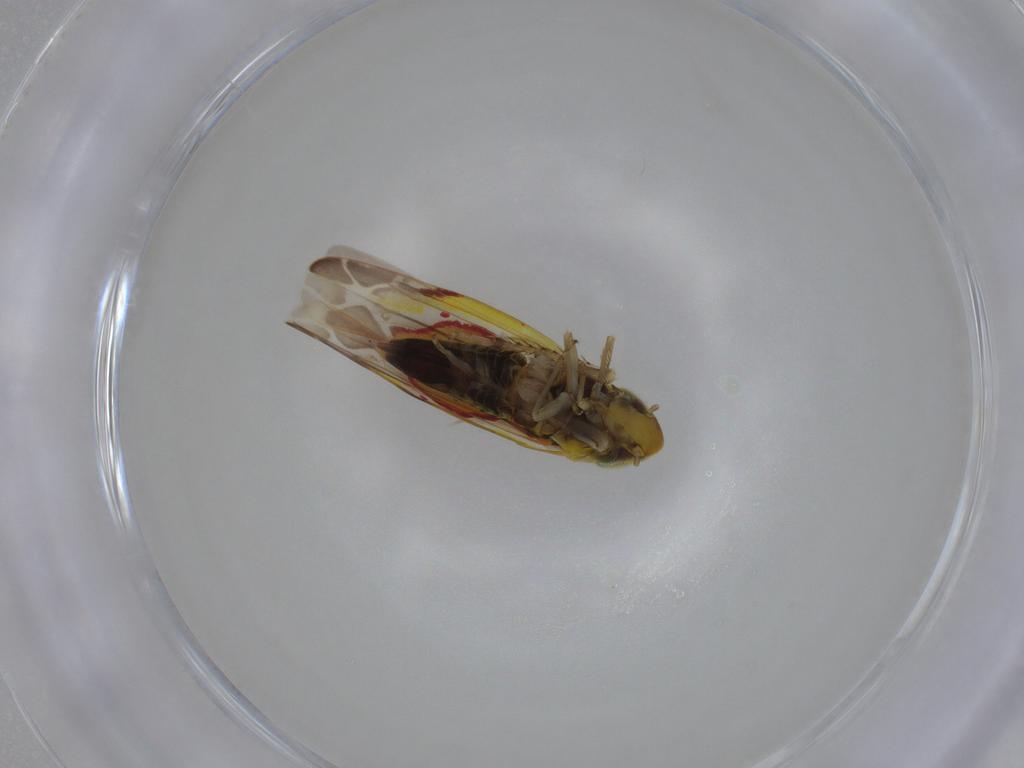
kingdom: Animalia
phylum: Arthropoda
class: Insecta
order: Hemiptera
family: Cicadellidae
